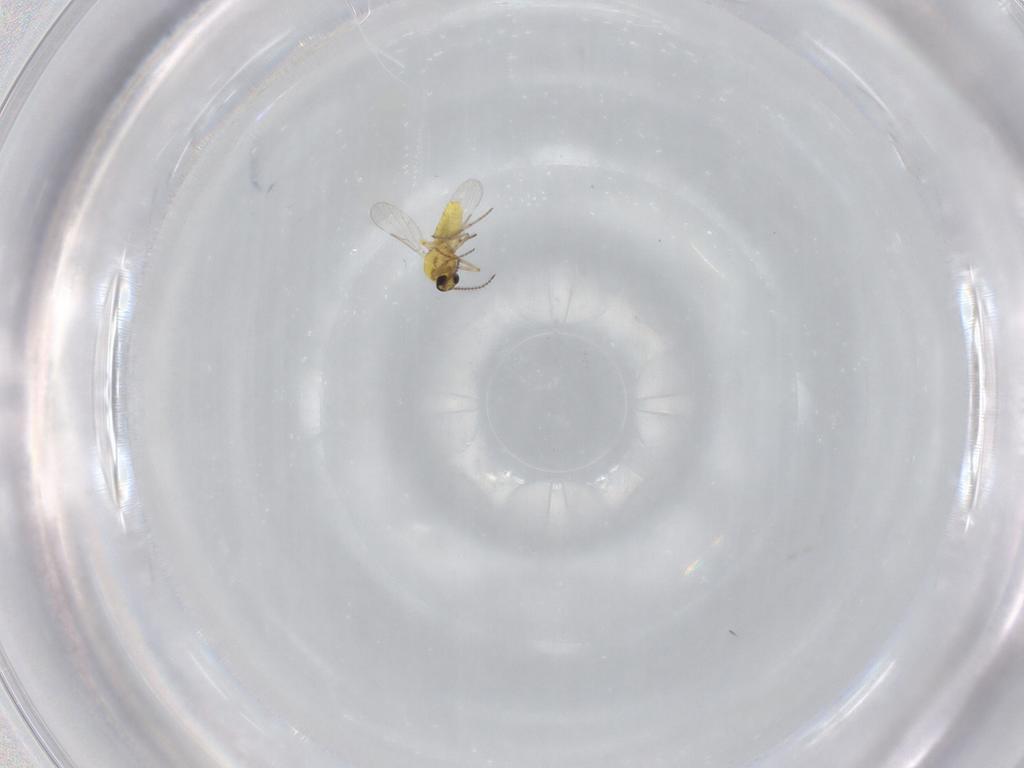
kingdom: Animalia
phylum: Arthropoda
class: Insecta
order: Diptera
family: Ceratopogonidae
